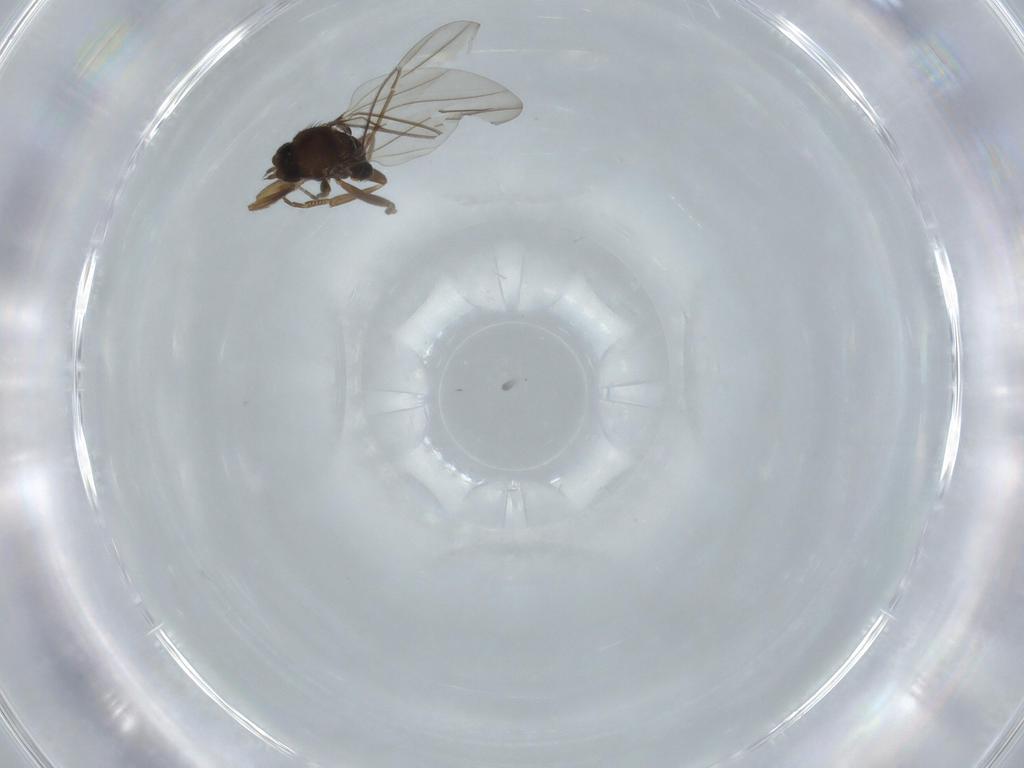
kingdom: Animalia
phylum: Arthropoda
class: Insecta
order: Diptera
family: Phoridae
